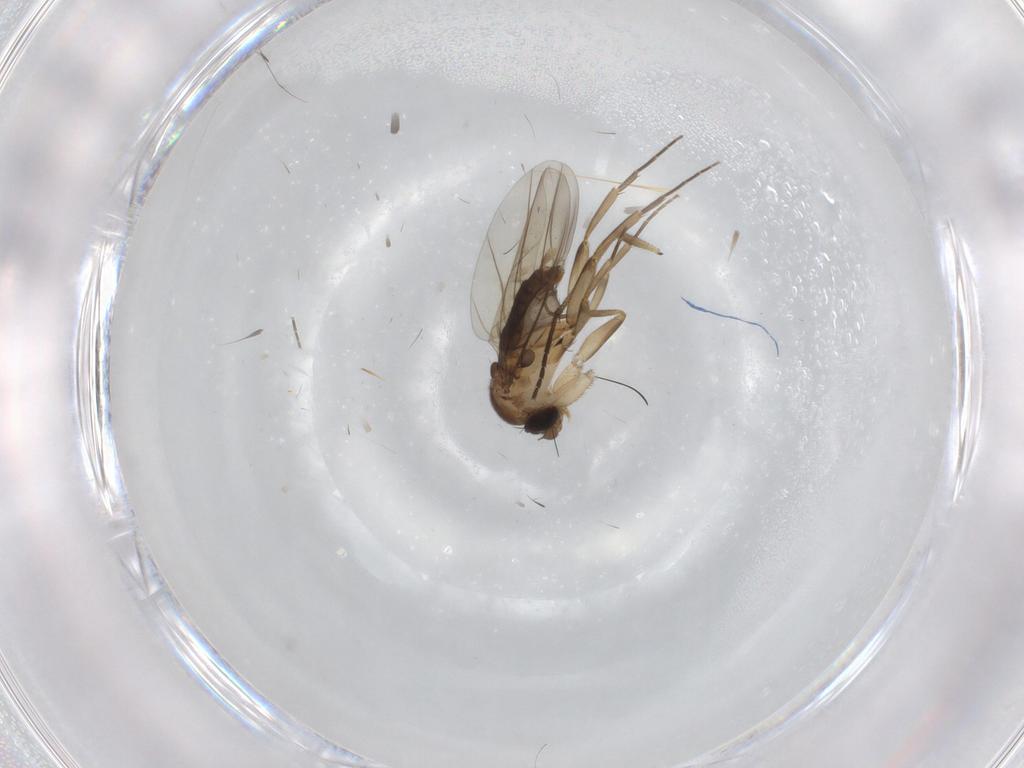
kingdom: Animalia
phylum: Arthropoda
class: Insecta
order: Diptera
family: Phoridae
